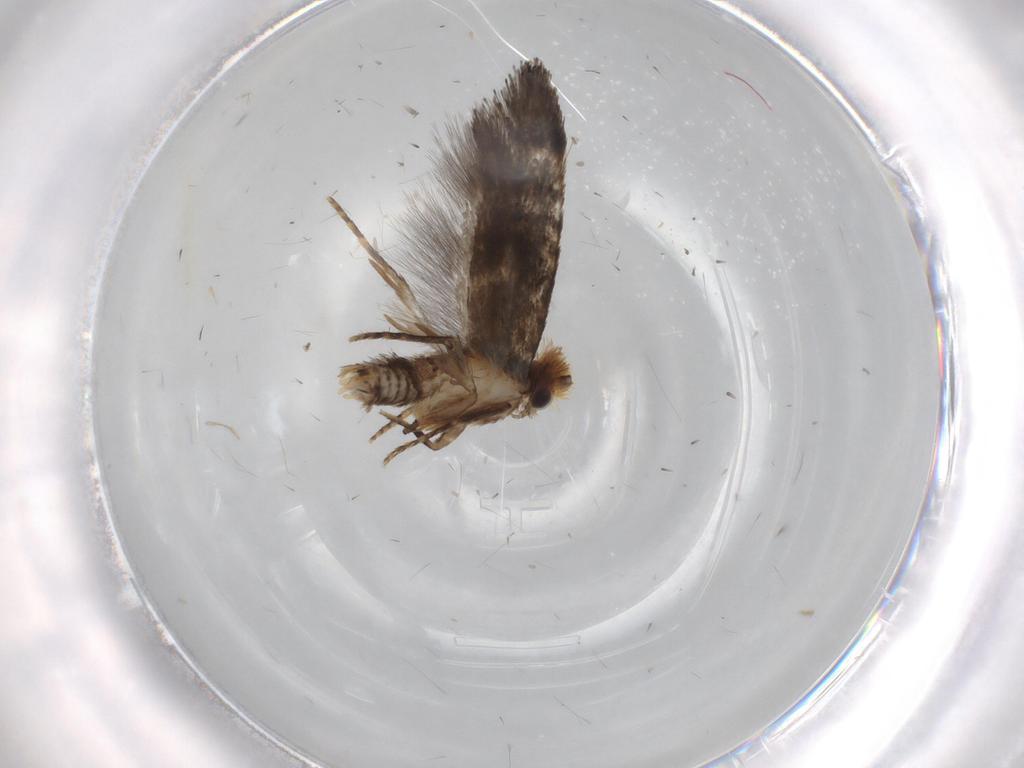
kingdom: Animalia
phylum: Arthropoda
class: Insecta
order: Lepidoptera
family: Tineidae
